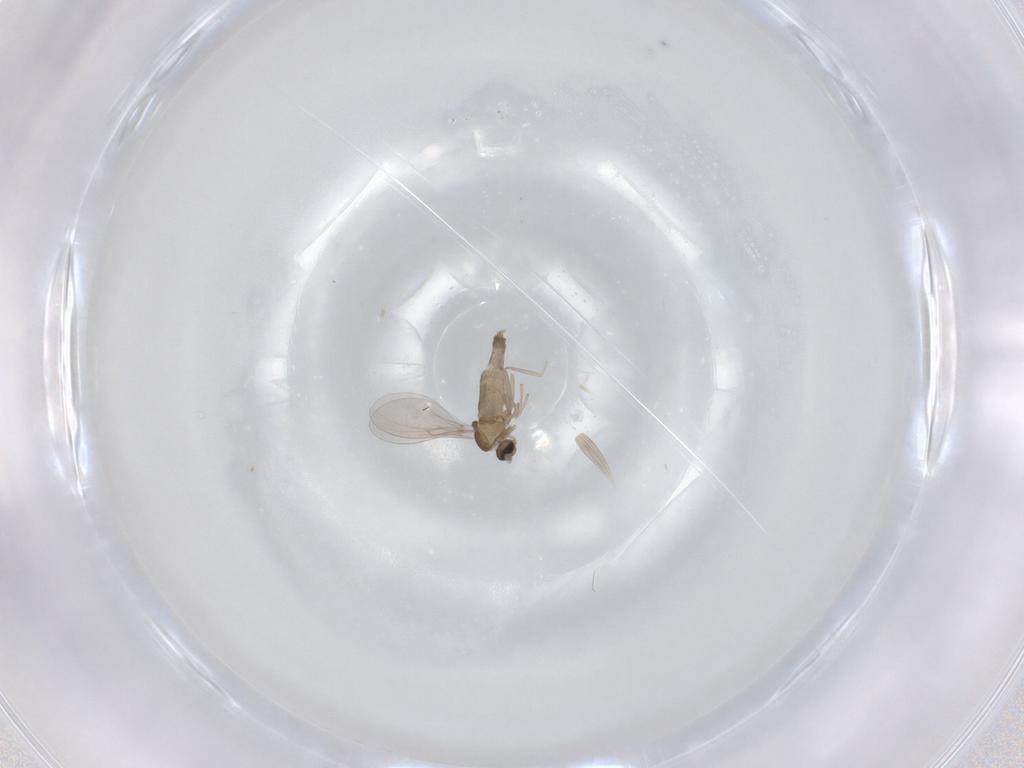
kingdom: Animalia
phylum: Arthropoda
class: Insecta
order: Diptera
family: Cecidomyiidae
